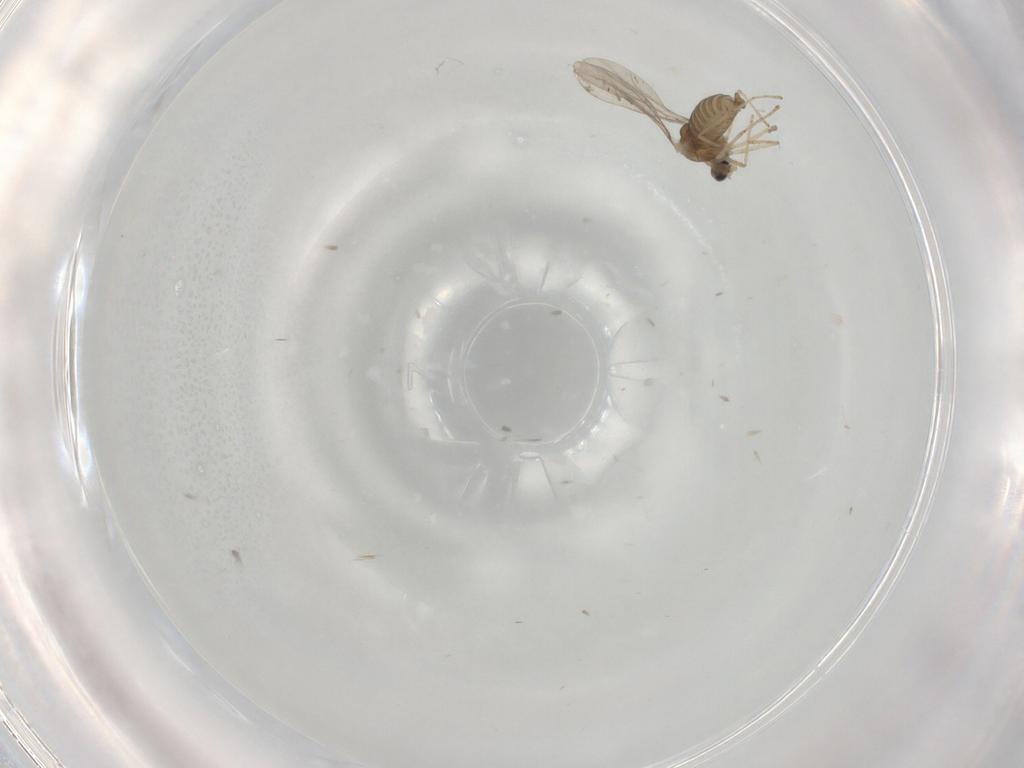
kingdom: Animalia
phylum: Arthropoda
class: Insecta
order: Diptera
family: Cecidomyiidae
